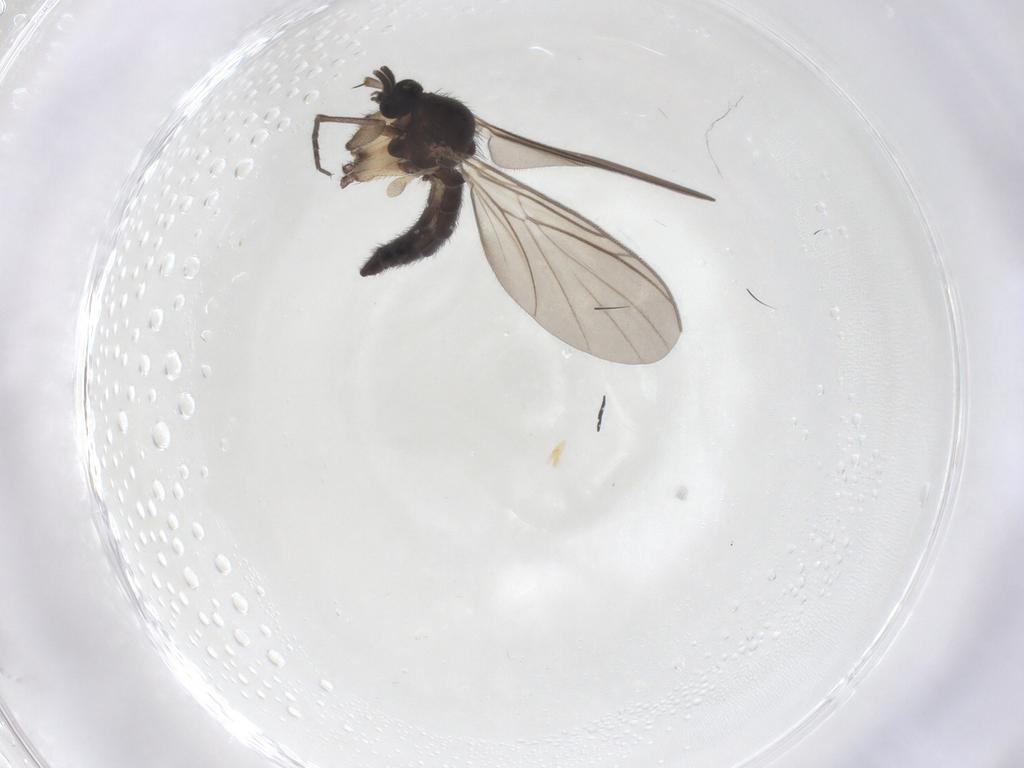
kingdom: Animalia
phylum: Arthropoda
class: Insecta
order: Diptera
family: Keroplatidae
